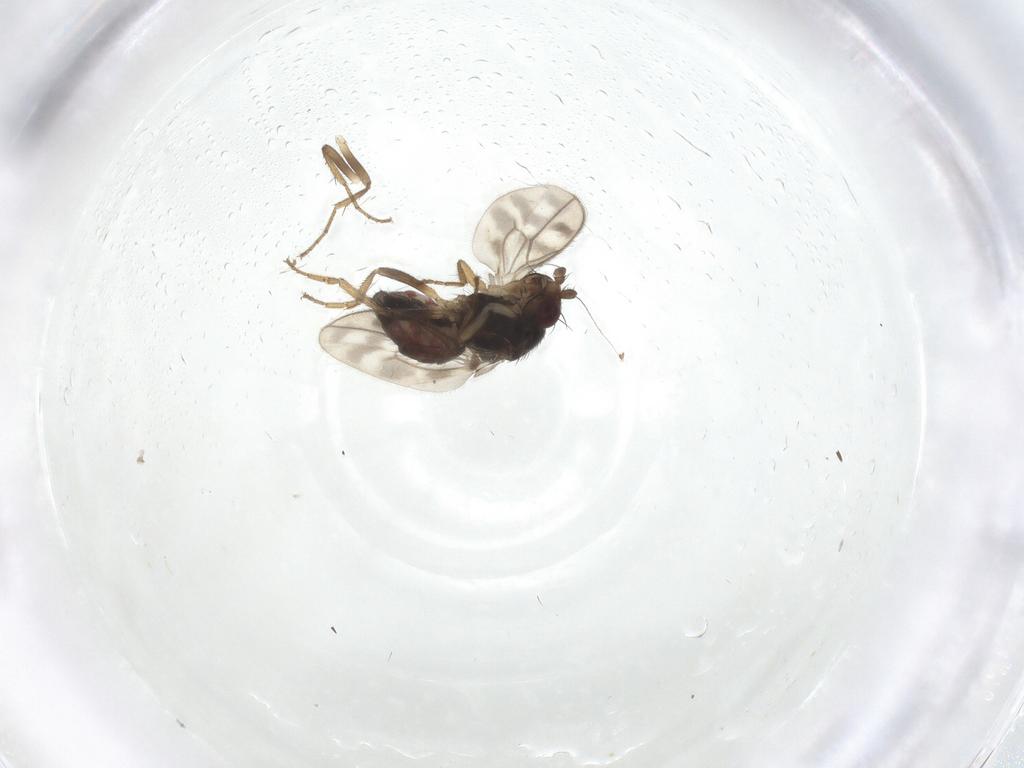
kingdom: Animalia
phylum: Arthropoda
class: Insecta
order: Diptera
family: Sphaeroceridae
